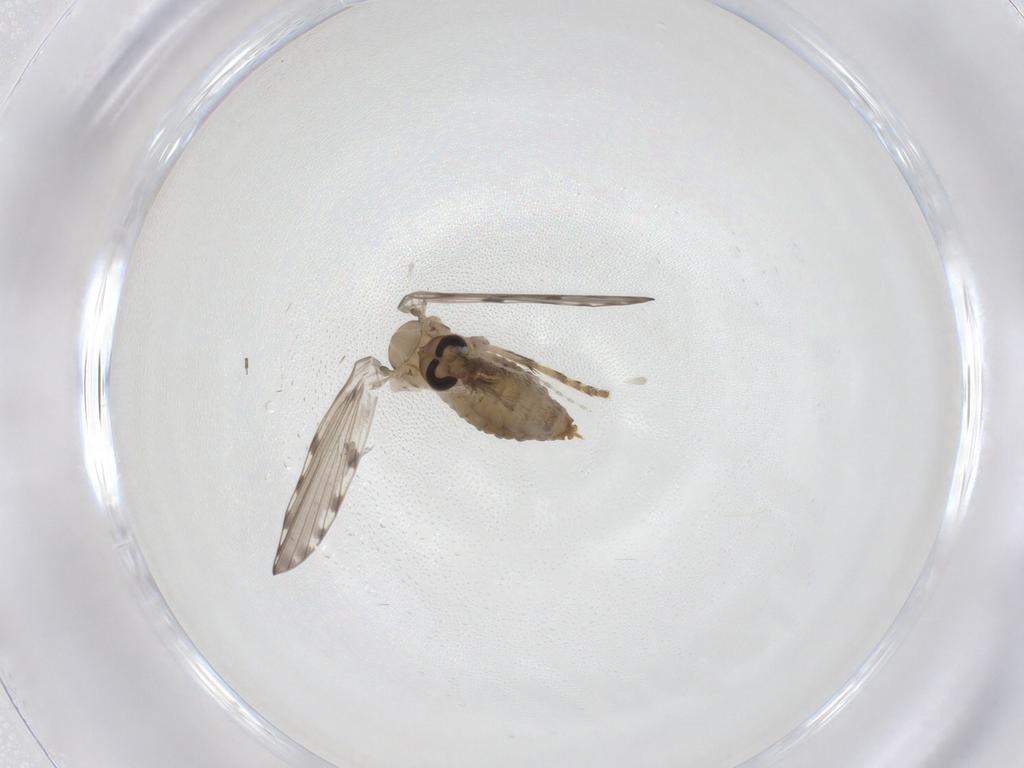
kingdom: Animalia
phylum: Arthropoda
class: Insecta
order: Diptera
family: Psychodidae
